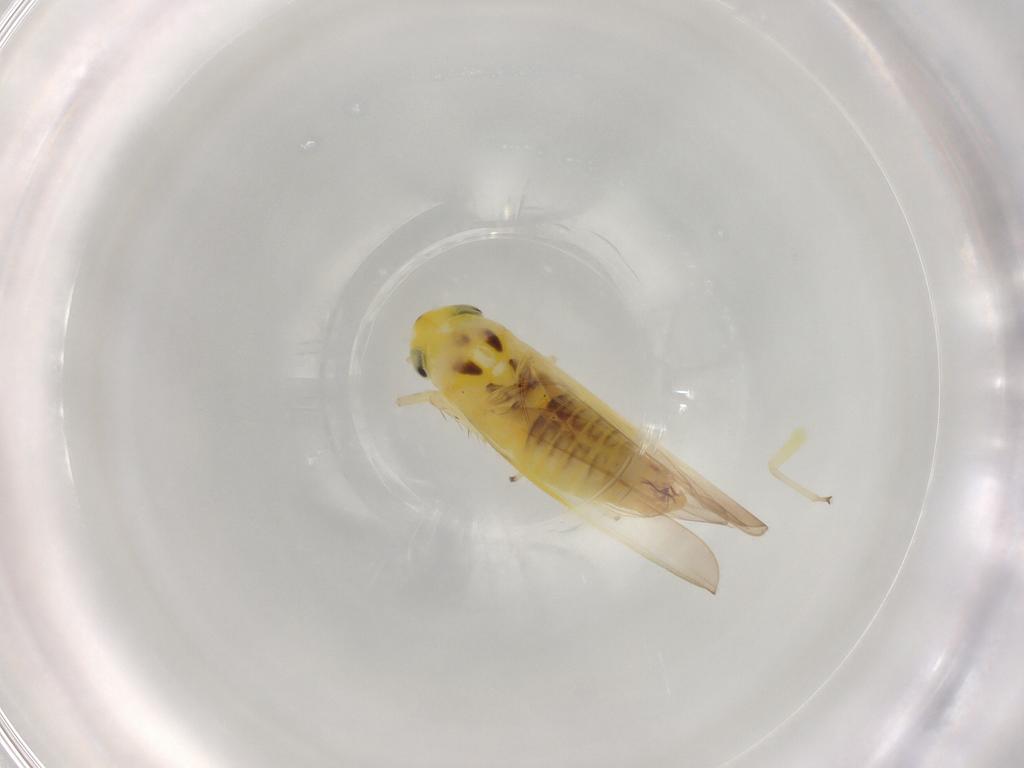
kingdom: Animalia
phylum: Arthropoda
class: Insecta
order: Hemiptera
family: Cicadellidae
